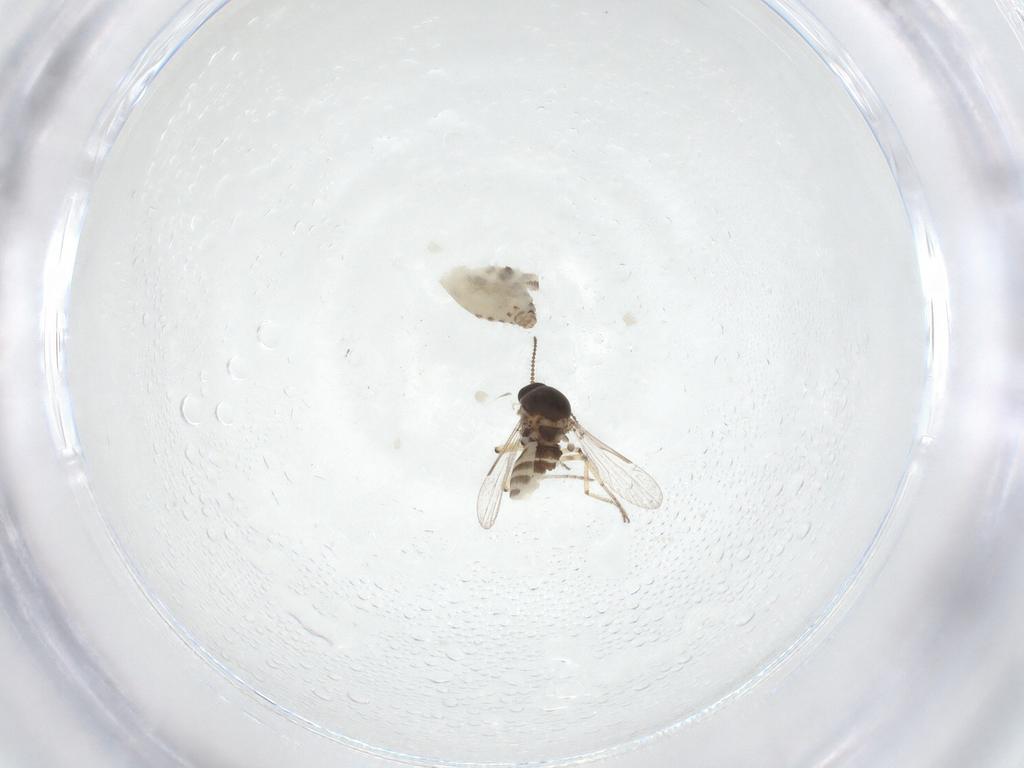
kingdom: Animalia
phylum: Arthropoda
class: Insecta
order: Diptera
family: Ceratopogonidae
